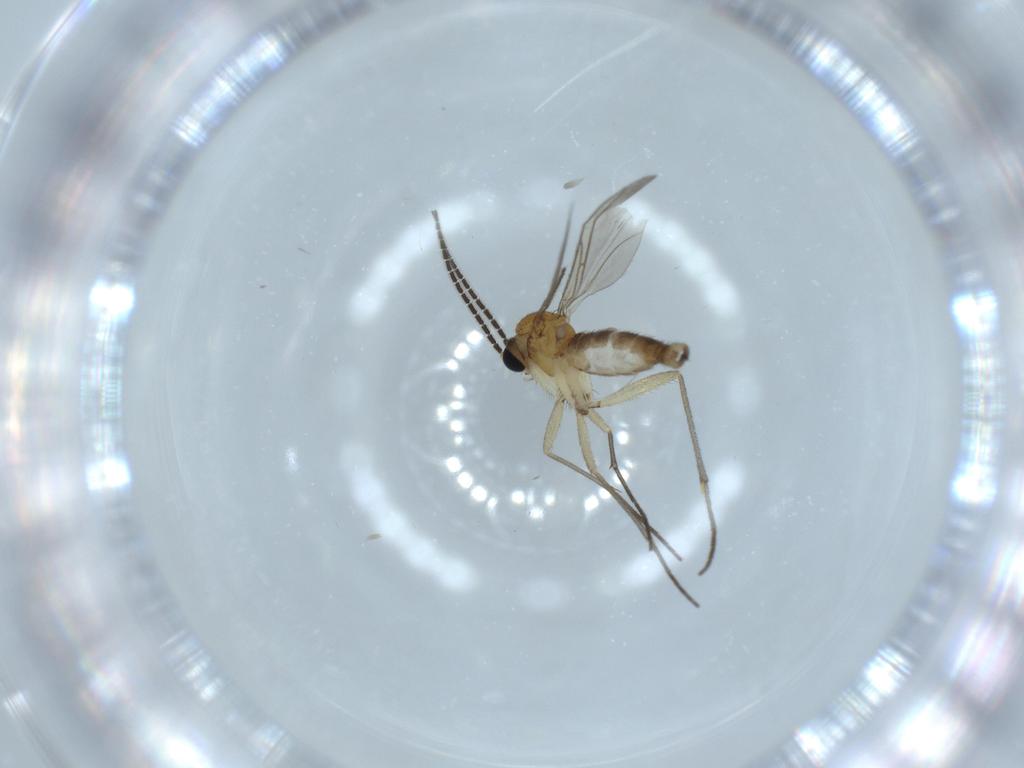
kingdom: Animalia
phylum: Arthropoda
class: Insecta
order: Diptera
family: Sciaridae
